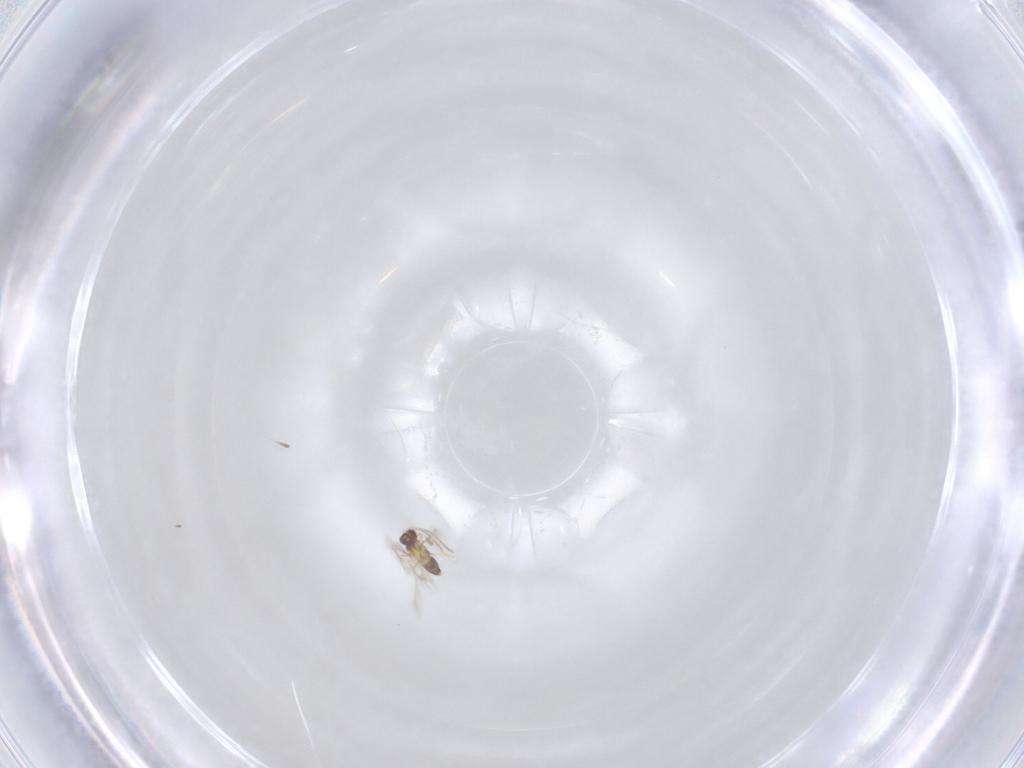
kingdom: Animalia
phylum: Arthropoda
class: Insecta
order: Hymenoptera
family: Mymaridae
